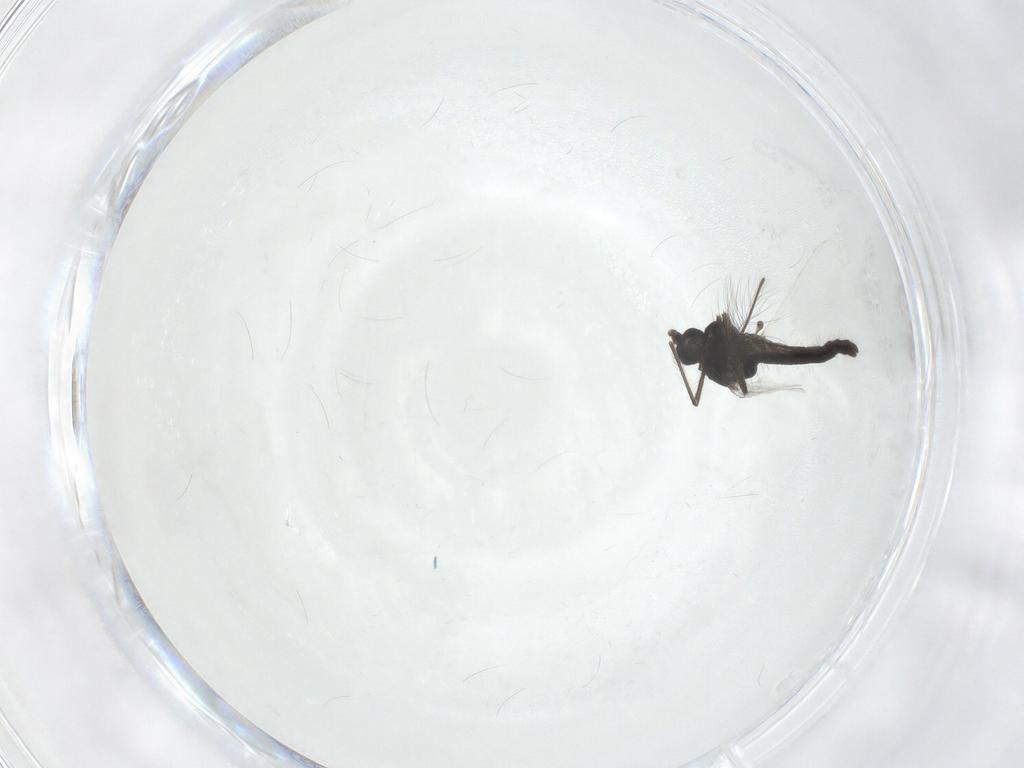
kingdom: Animalia
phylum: Arthropoda
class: Insecta
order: Diptera
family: Chironomidae
